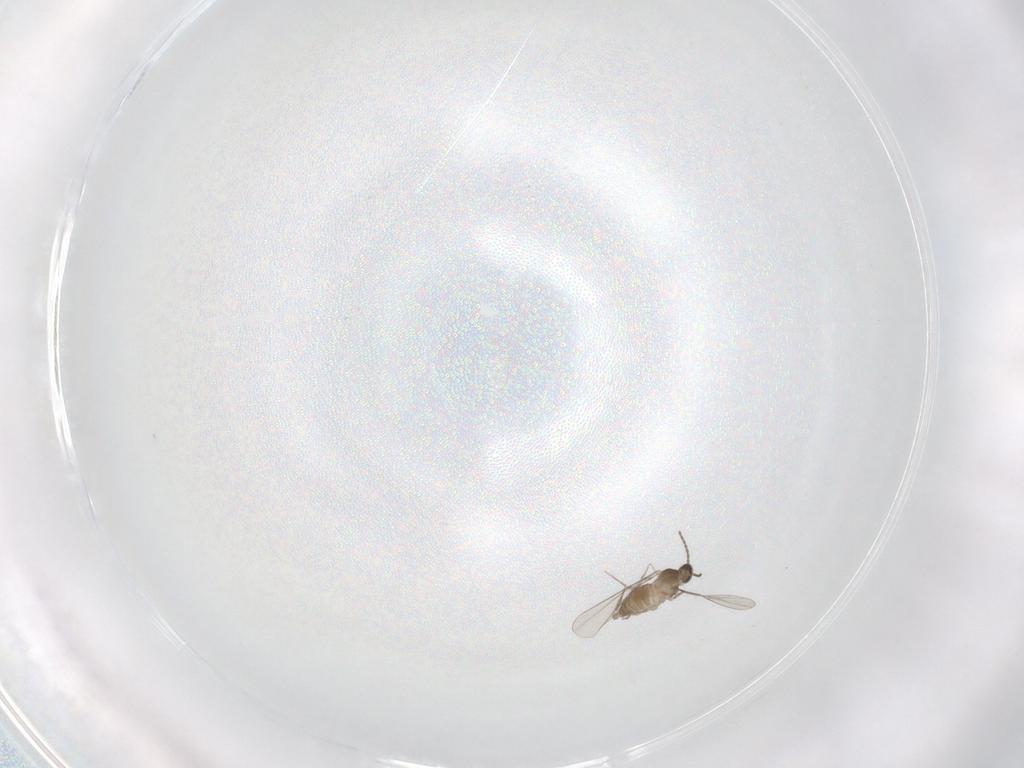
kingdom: Animalia
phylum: Arthropoda
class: Insecta
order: Diptera
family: Cecidomyiidae
